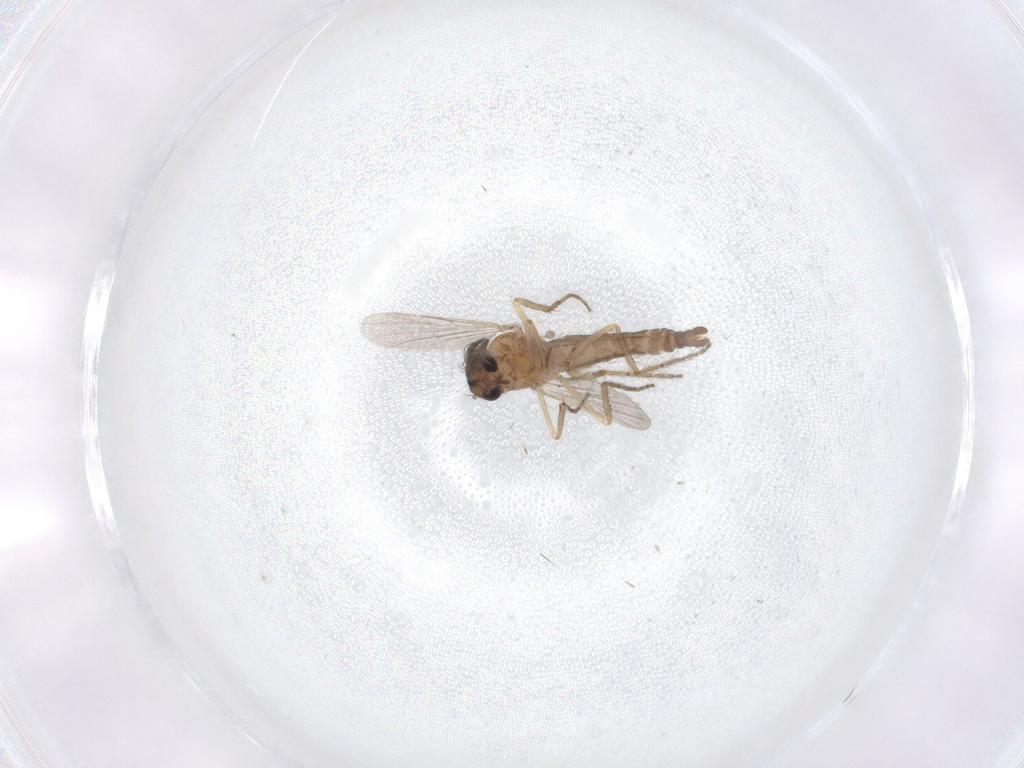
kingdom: Animalia
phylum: Arthropoda
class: Insecta
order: Diptera
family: Ceratopogonidae
